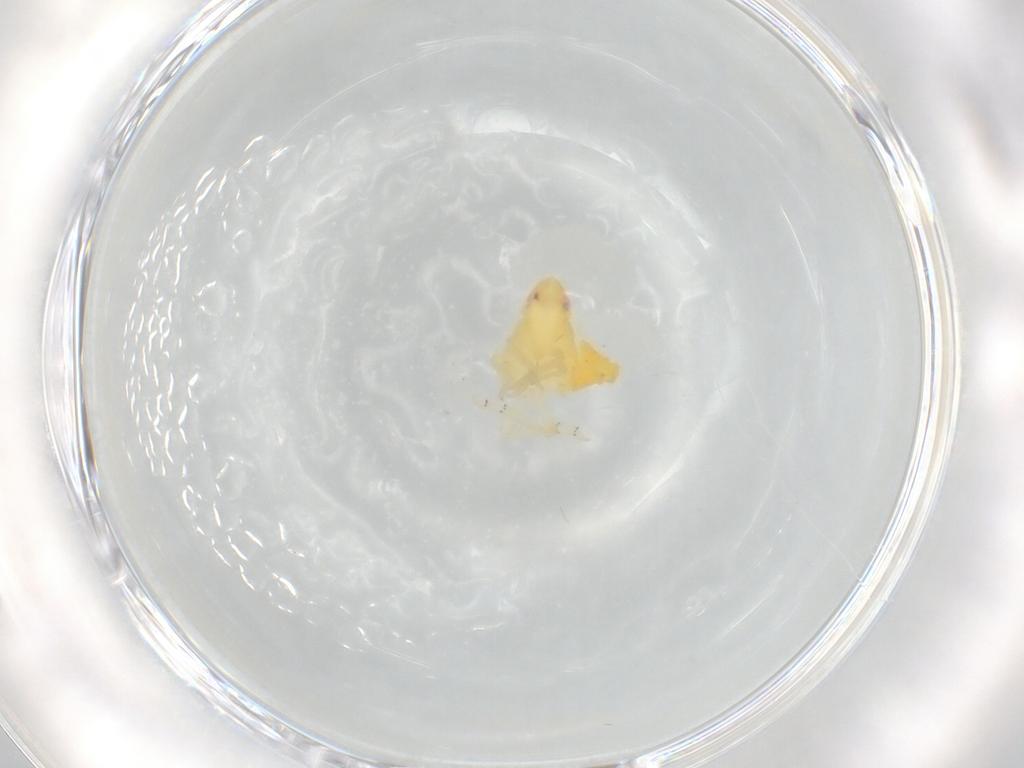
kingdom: Animalia
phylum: Arthropoda
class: Insecta
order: Hemiptera
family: Tropiduchidae
